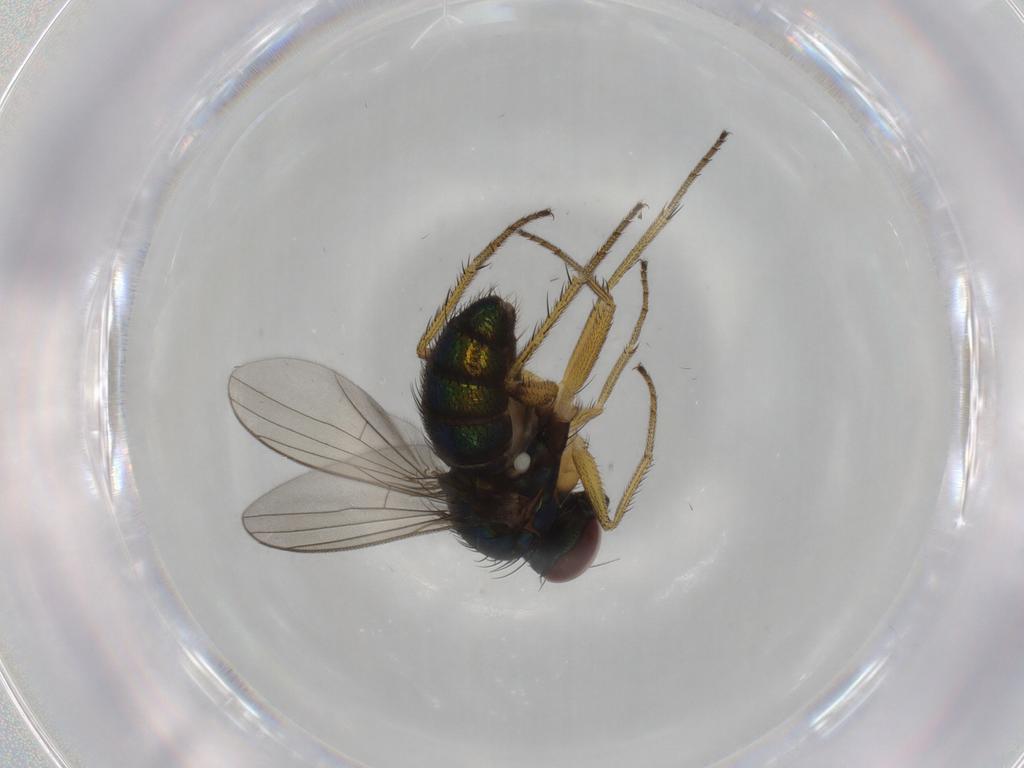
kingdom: Animalia
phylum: Arthropoda
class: Insecta
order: Diptera
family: Dolichopodidae
